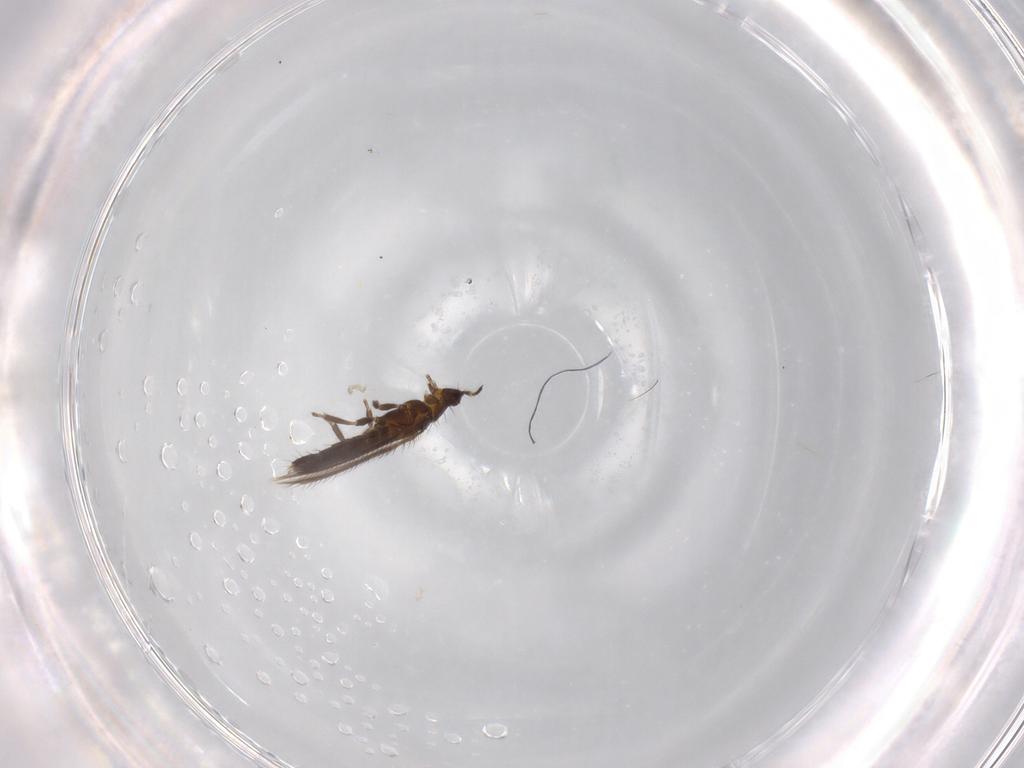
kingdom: Animalia
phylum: Arthropoda
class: Insecta
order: Thysanoptera
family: Thripidae
